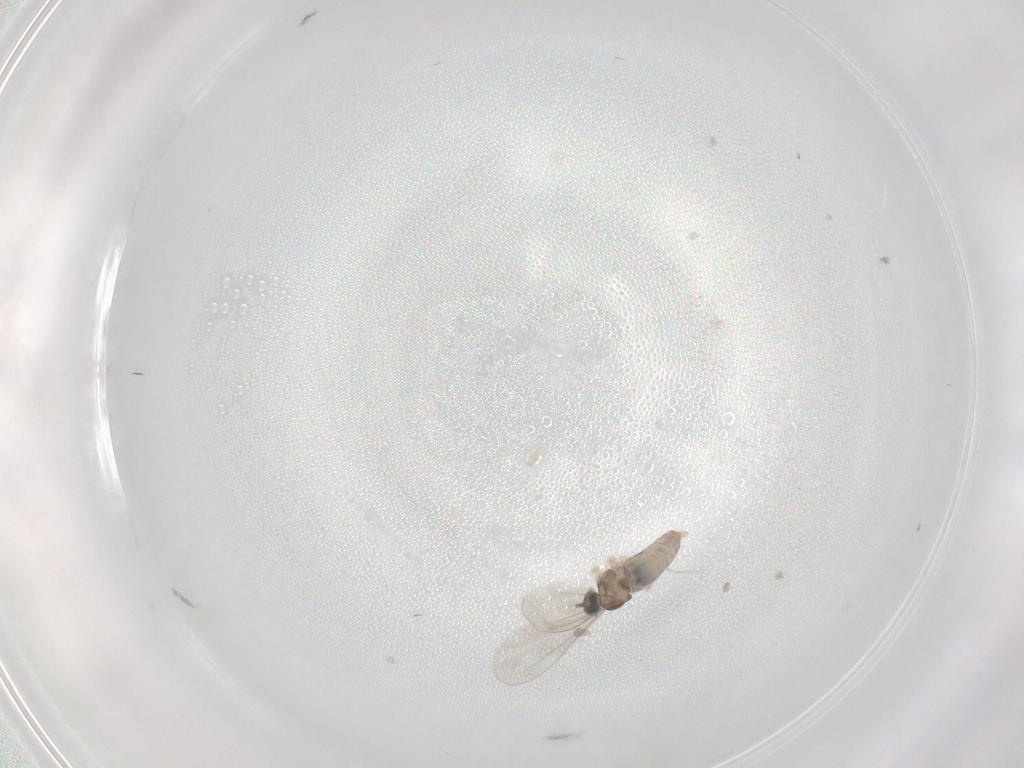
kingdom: Animalia
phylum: Arthropoda
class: Insecta
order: Diptera
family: Cecidomyiidae
